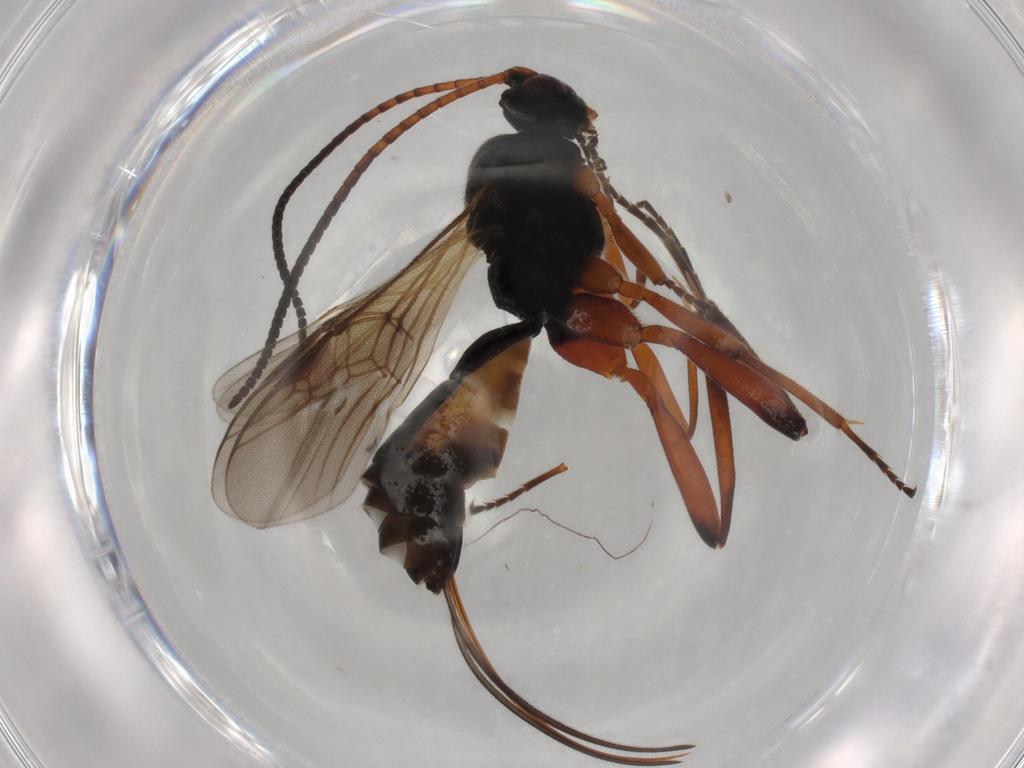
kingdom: Animalia
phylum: Arthropoda
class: Insecta
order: Hymenoptera
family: Braconidae
